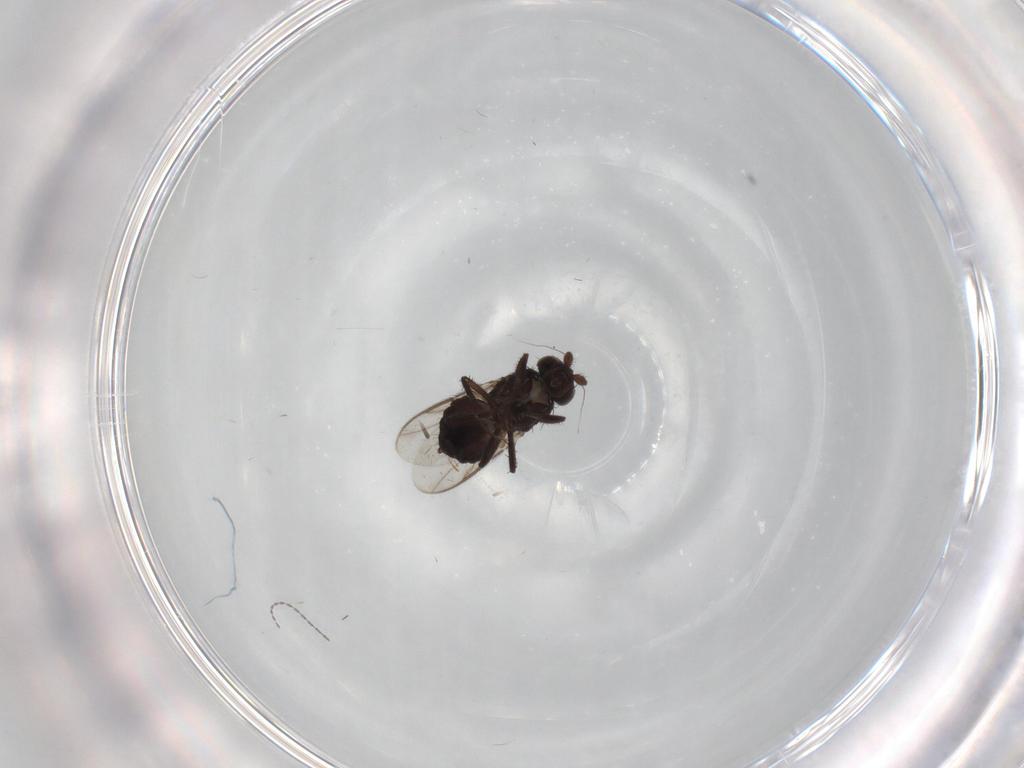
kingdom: Animalia
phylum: Arthropoda
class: Insecta
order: Diptera
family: Sphaeroceridae
